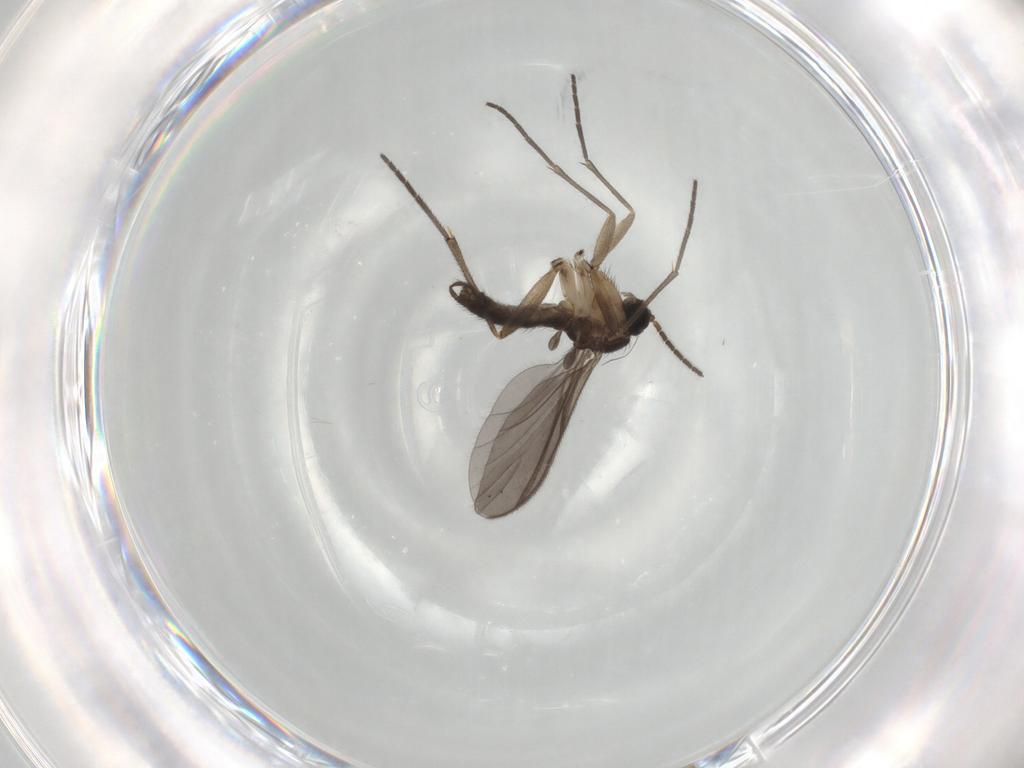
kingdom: Animalia
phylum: Arthropoda
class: Insecta
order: Diptera
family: Sciaridae
